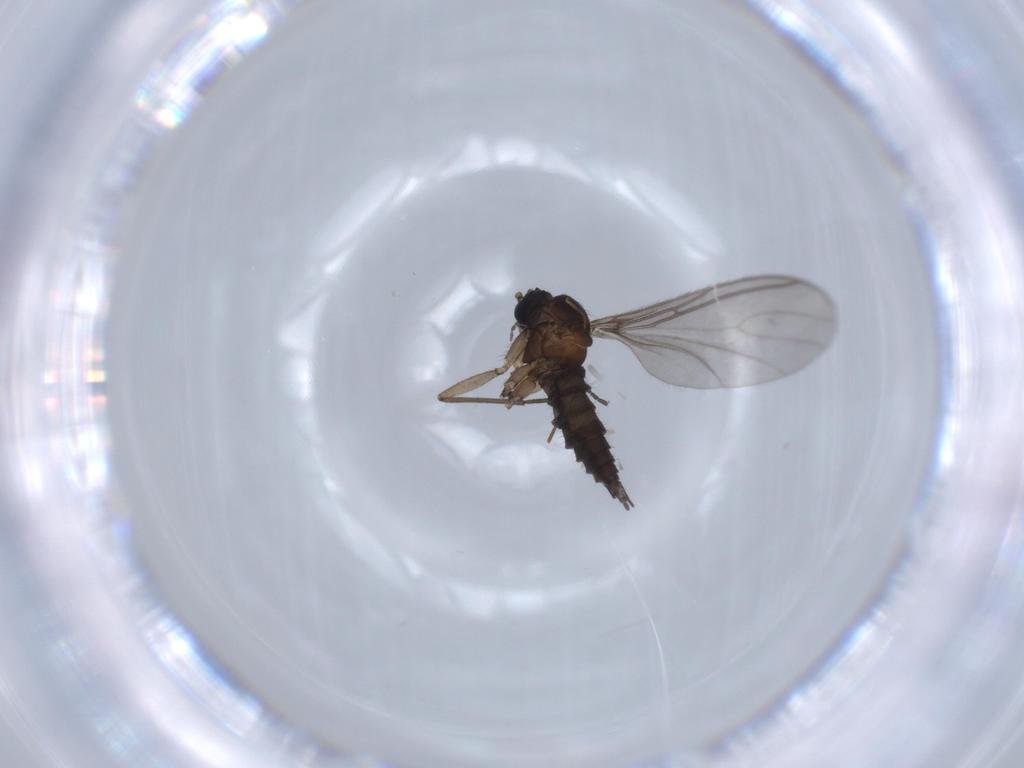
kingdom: Animalia
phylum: Arthropoda
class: Insecta
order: Diptera
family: Sciaridae
